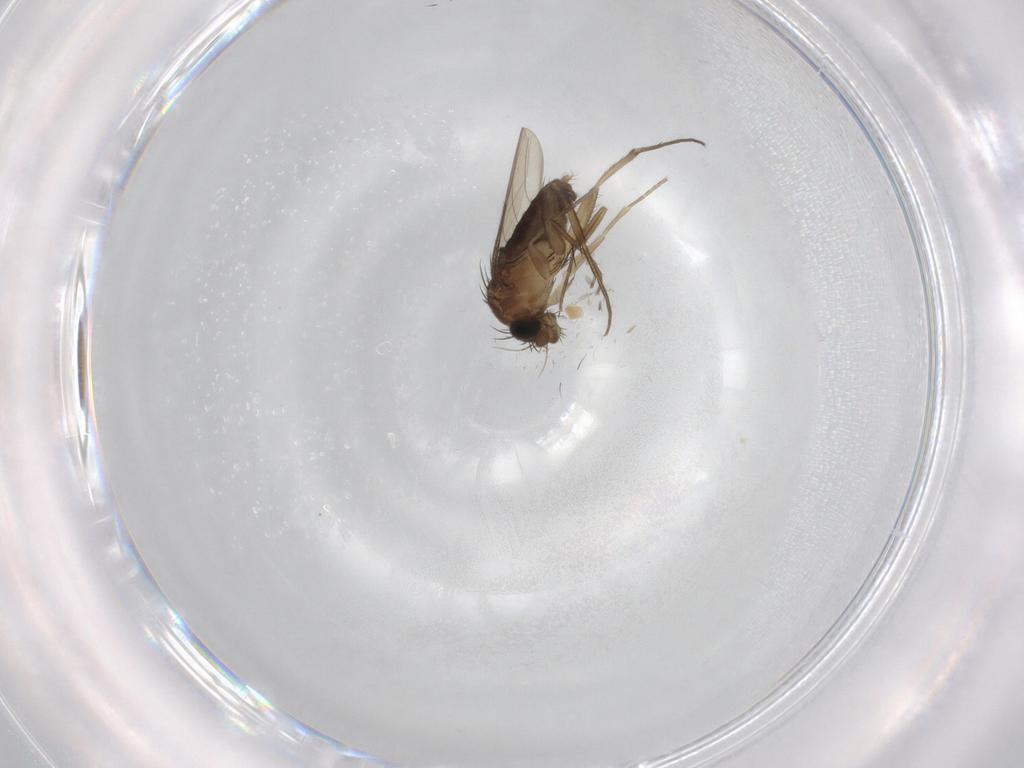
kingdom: Animalia
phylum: Arthropoda
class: Insecta
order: Diptera
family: Phoridae
